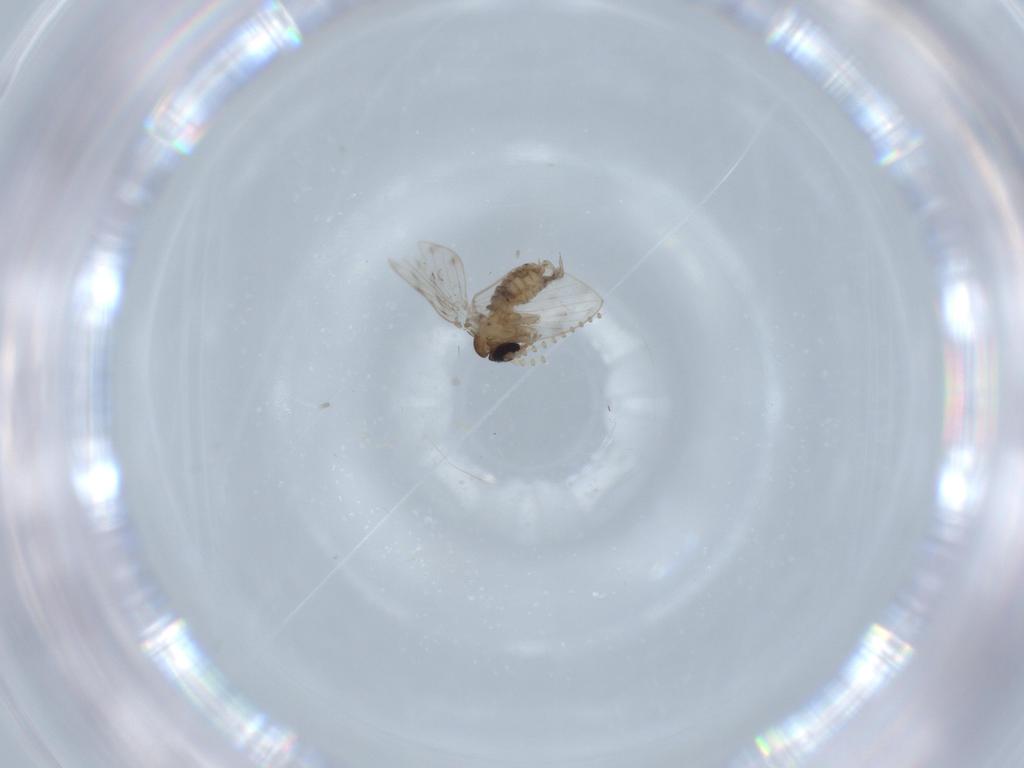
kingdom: Animalia
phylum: Arthropoda
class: Insecta
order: Diptera
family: Psychodidae
